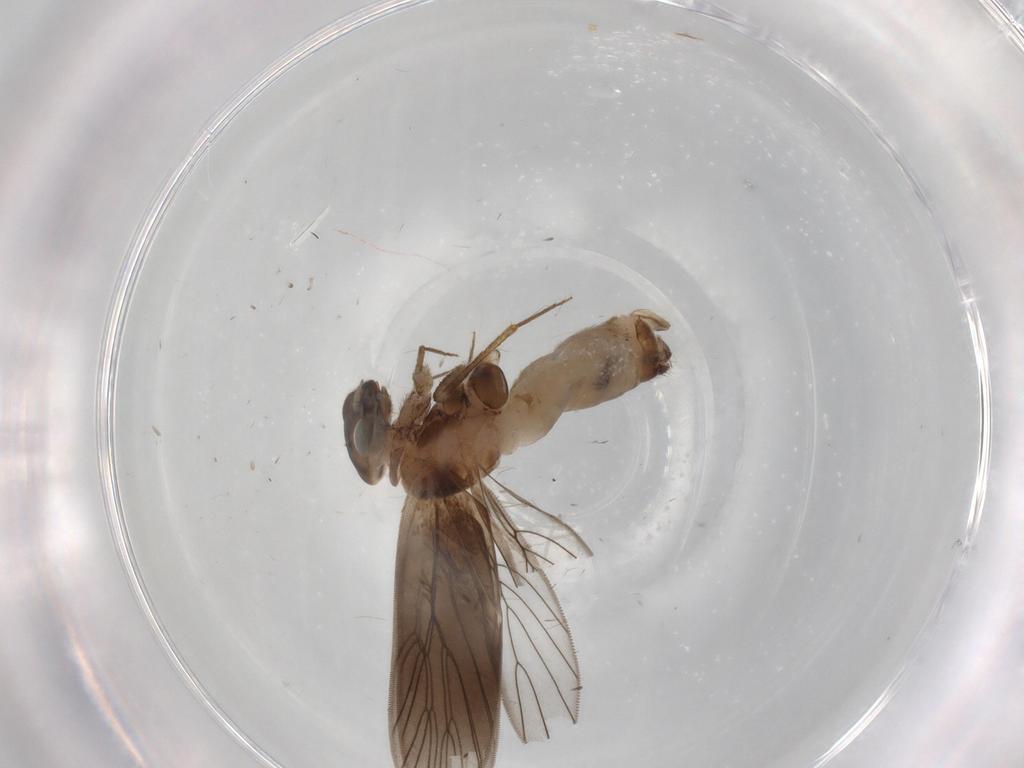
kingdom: Animalia
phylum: Arthropoda
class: Insecta
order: Psocodea
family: Lepidopsocidae
